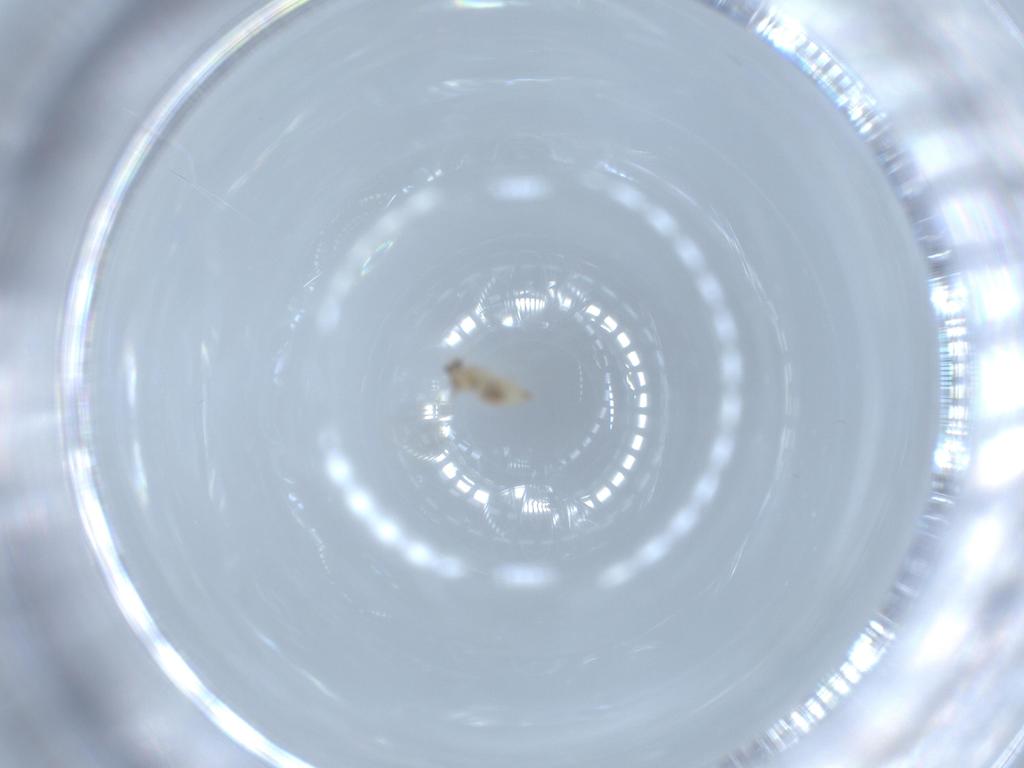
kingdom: Animalia
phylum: Arthropoda
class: Insecta
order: Diptera
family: Cecidomyiidae
